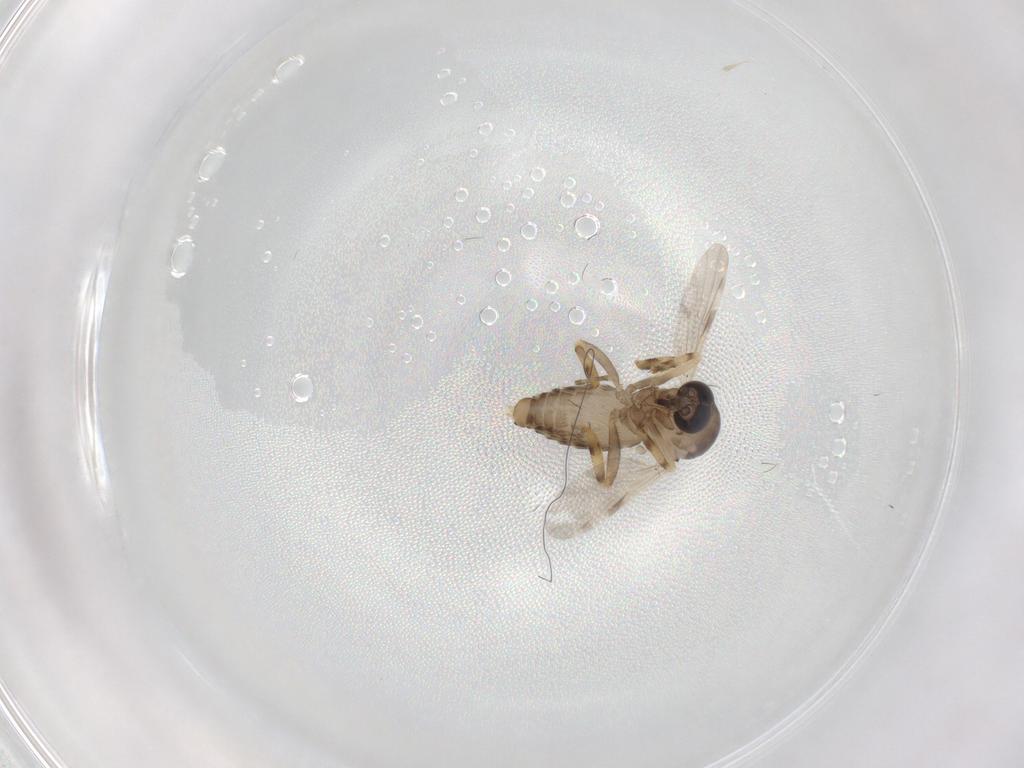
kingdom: Animalia
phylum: Arthropoda
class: Insecta
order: Diptera
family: Ceratopogonidae
